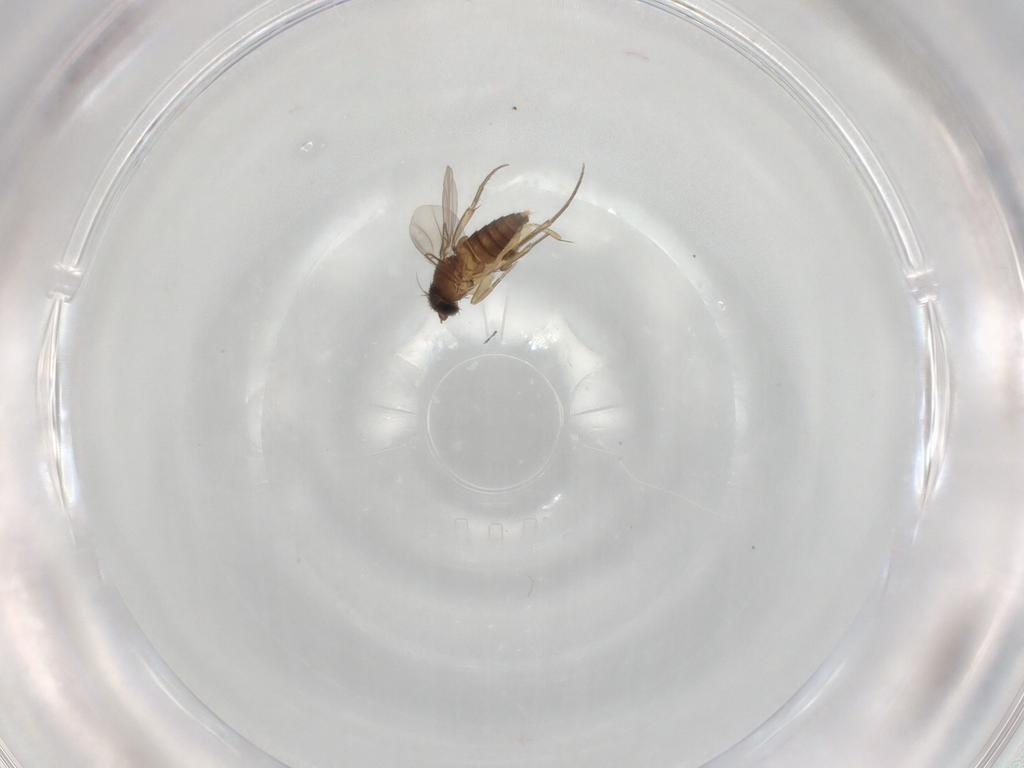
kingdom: Animalia
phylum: Arthropoda
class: Insecta
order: Diptera
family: Phoridae
